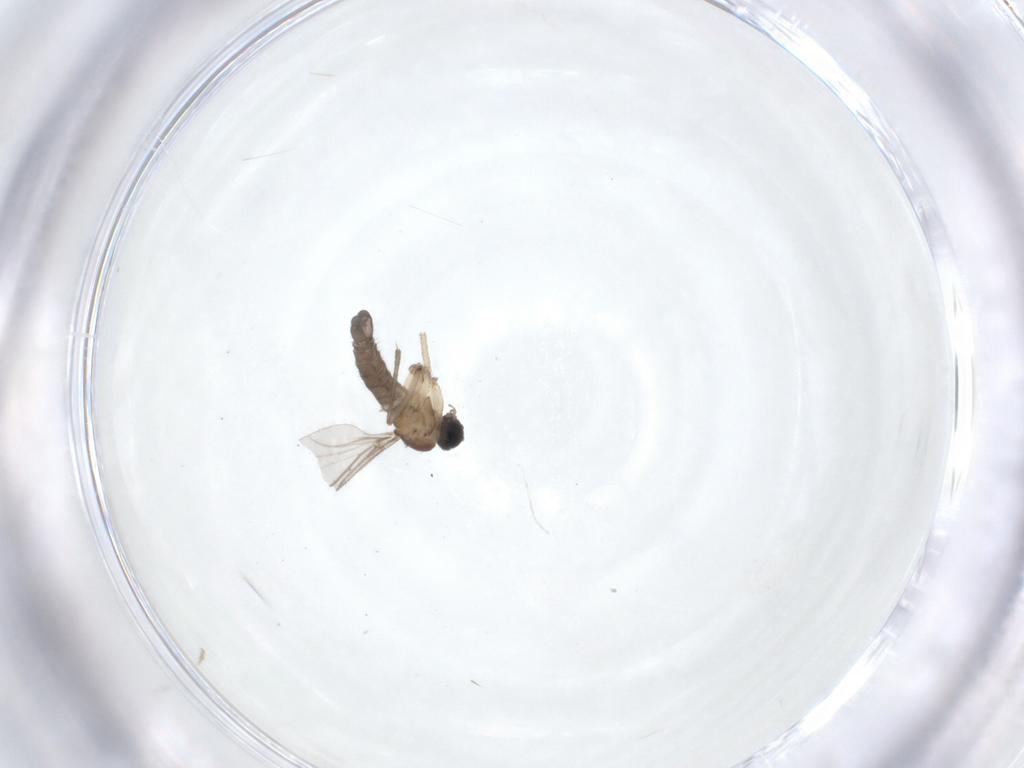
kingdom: Animalia
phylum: Arthropoda
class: Insecta
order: Diptera
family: Sciaridae
